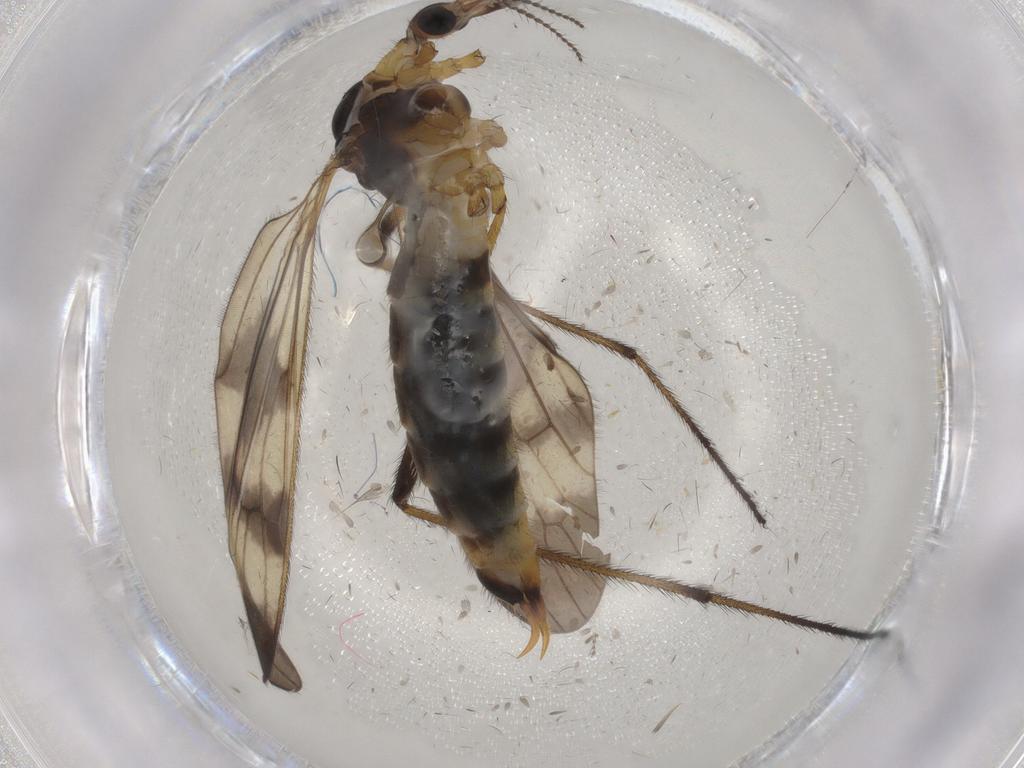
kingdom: Animalia
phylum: Arthropoda
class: Insecta
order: Diptera
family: Limoniidae
